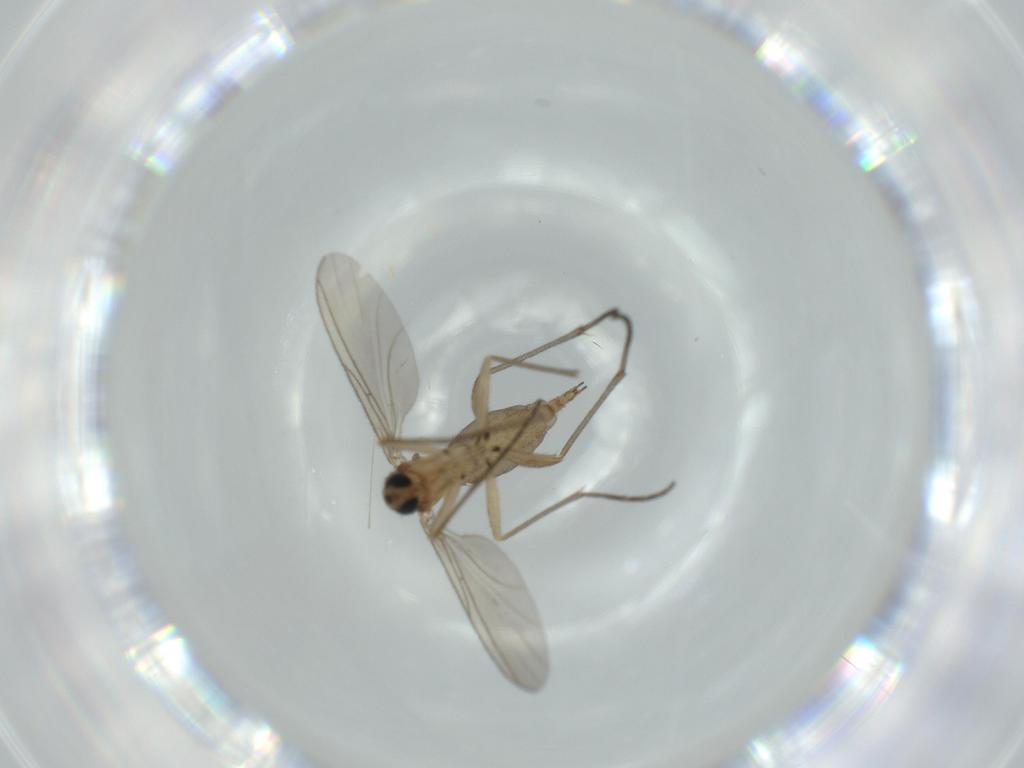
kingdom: Animalia
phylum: Arthropoda
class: Insecta
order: Diptera
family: Sciaridae
